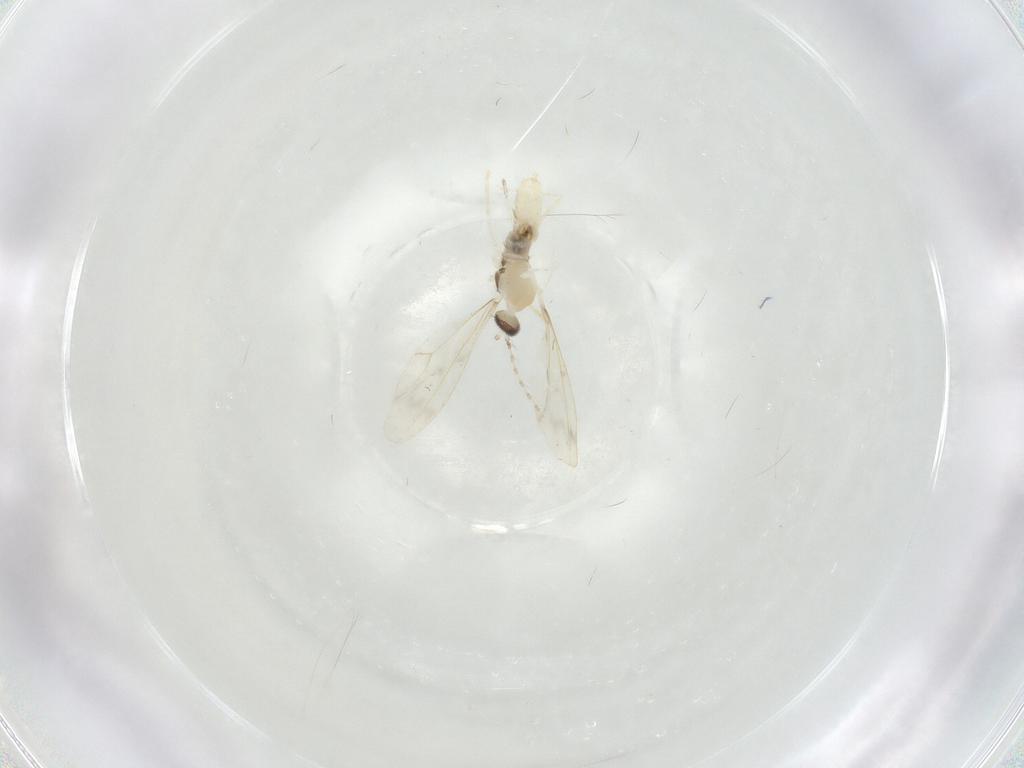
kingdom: Animalia
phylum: Arthropoda
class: Insecta
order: Diptera
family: Cecidomyiidae
